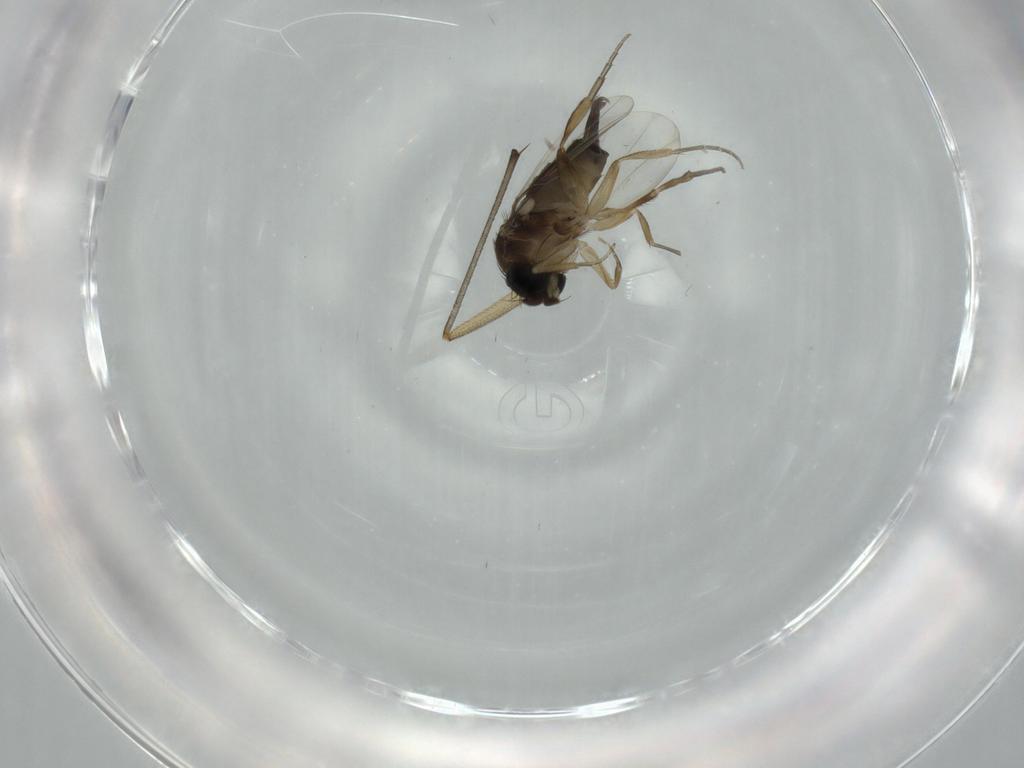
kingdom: Animalia
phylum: Arthropoda
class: Insecta
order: Diptera
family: Phoridae
